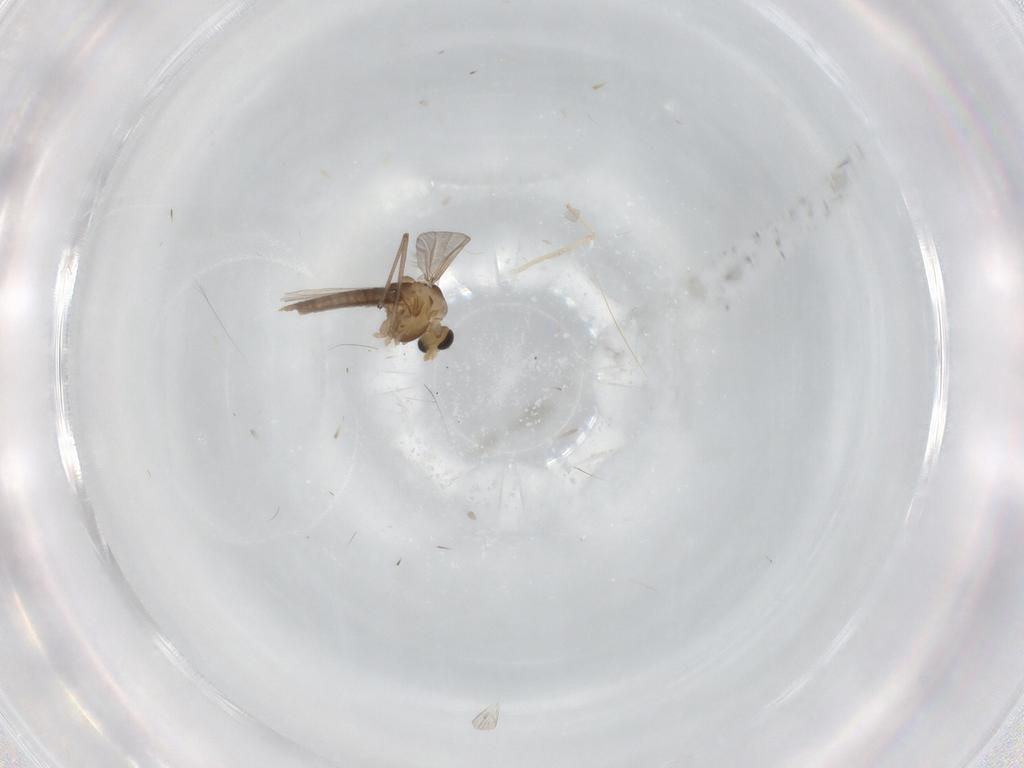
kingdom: Animalia
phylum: Arthropoda
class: Insecta
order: Diptera
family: Chironomidae
